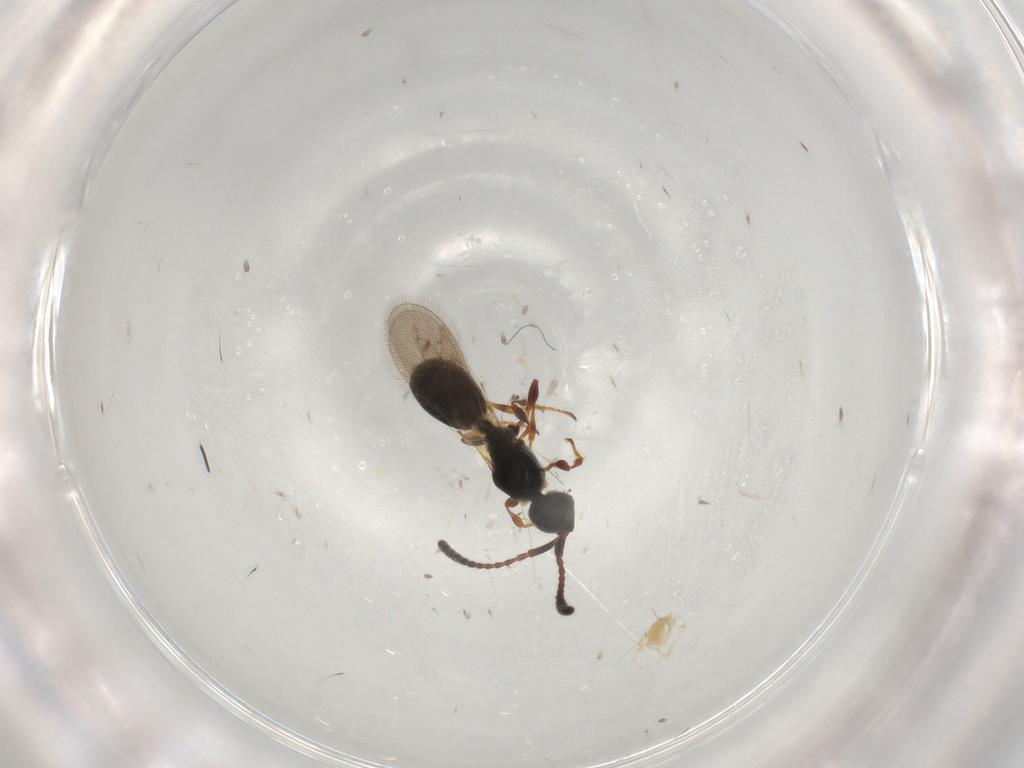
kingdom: Animalia
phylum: Arthropoda
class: Insecta
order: Hymenoptera
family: Diapriidae
